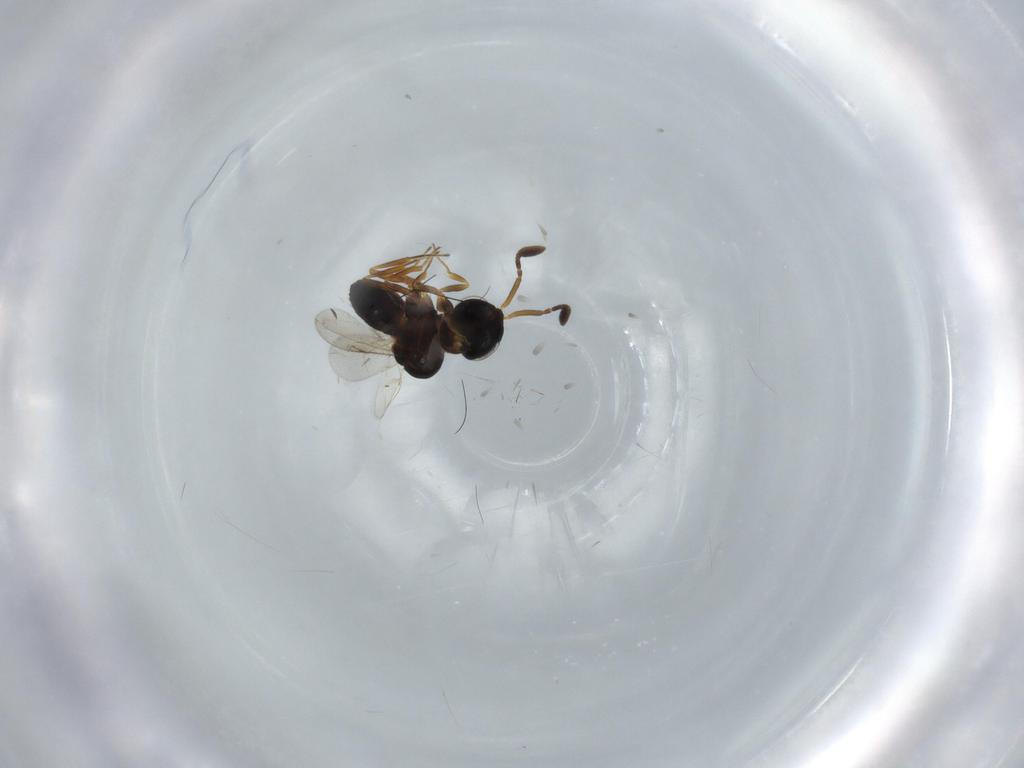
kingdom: Animalia
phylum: Arthropoda
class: Insecta
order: Coleoptera
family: Curculionidae
